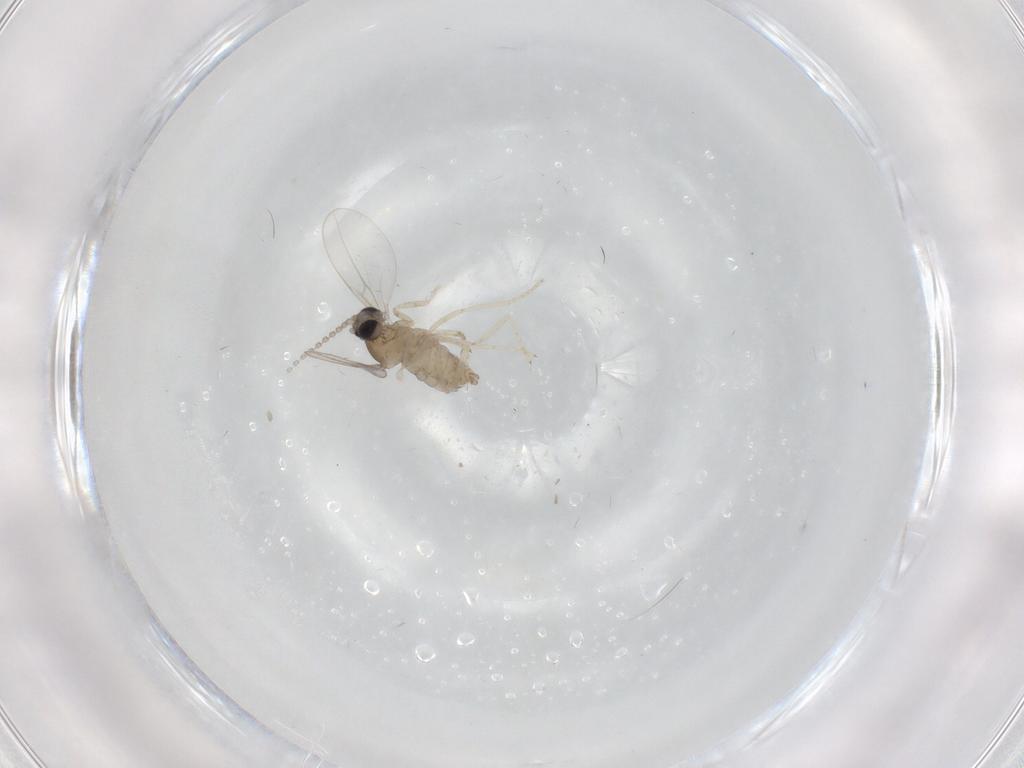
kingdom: Animalia
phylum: Arthropoda
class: Insecta
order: Diptera
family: Cecidomyiidae
